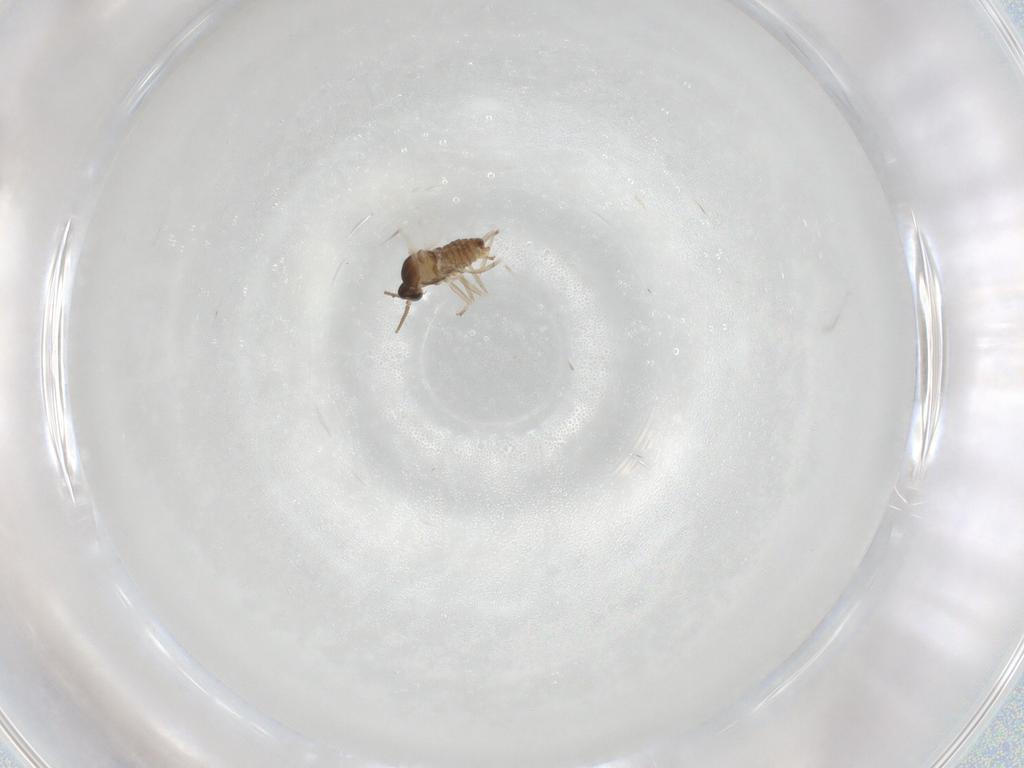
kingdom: Animalia
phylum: Arthropoda
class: Insecta
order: Diptera
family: Cecidomyiidae
